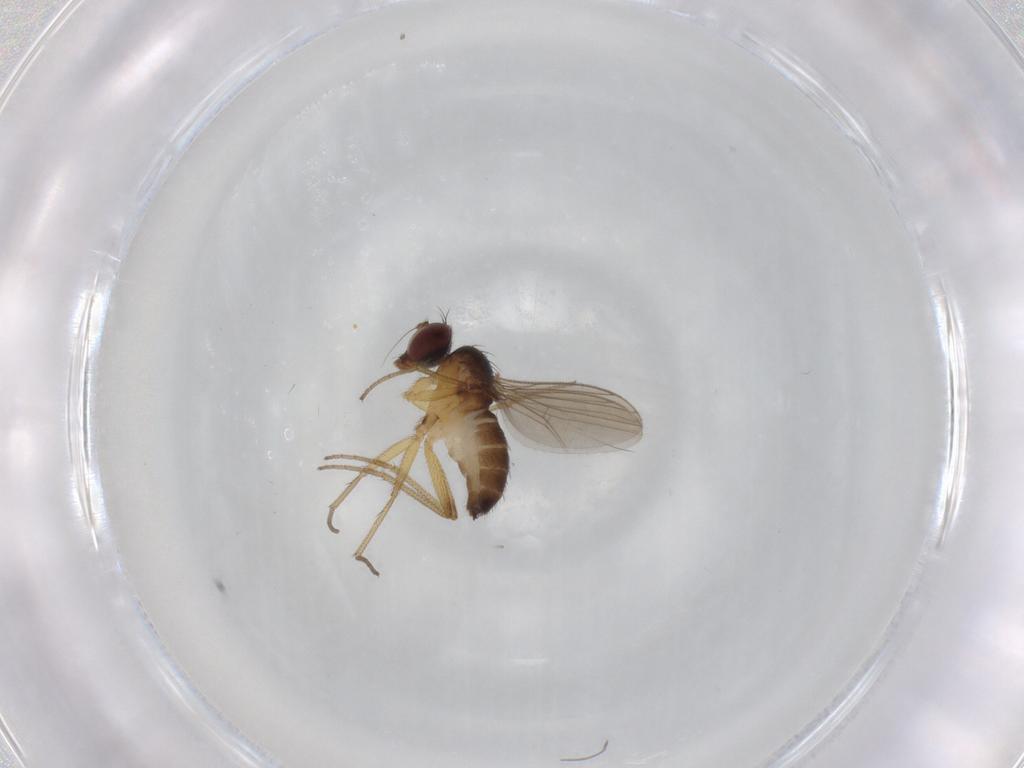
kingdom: Animalia
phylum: Arthropoda
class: Insecta
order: Diptera
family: Dolichopodidae
